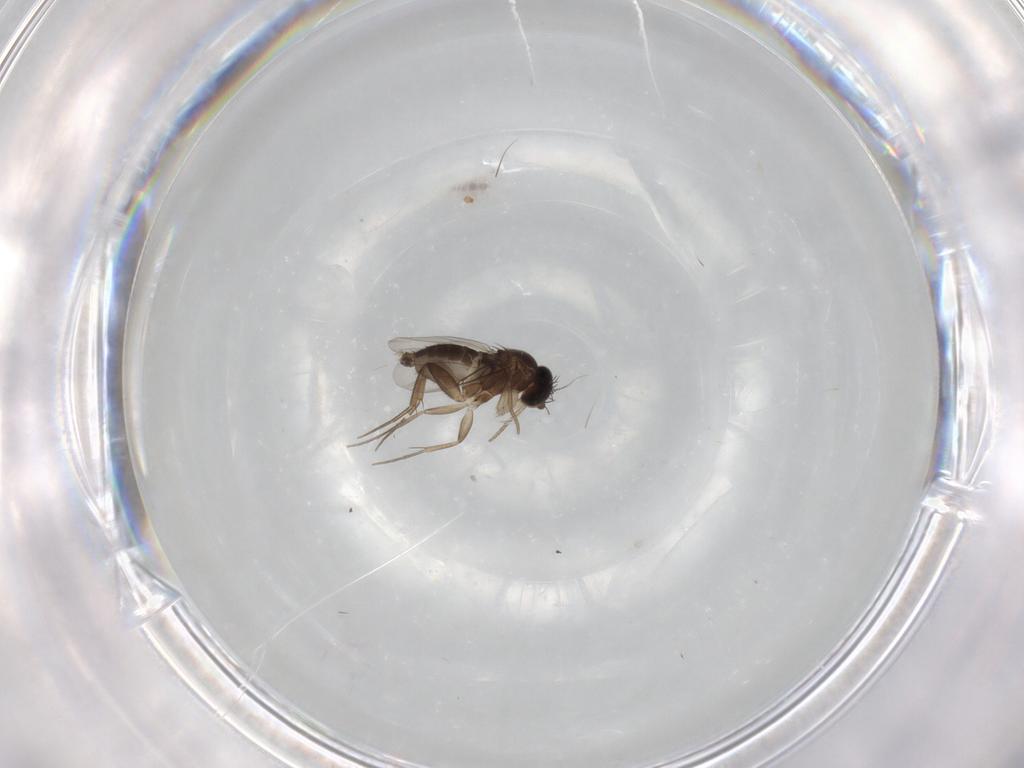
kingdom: Animalia
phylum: Arthropoda
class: Insecta
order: Diptera
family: Phoridae
